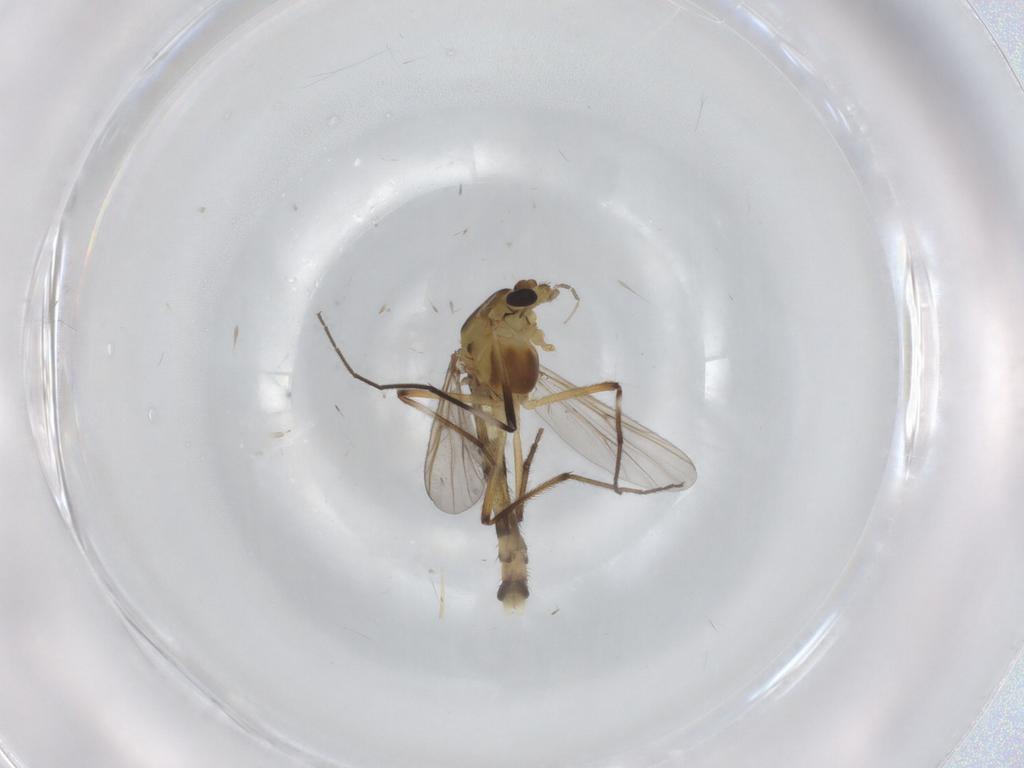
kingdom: Animalia
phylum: Arthropoda
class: Insecta
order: Diptera
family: Chironomidae
